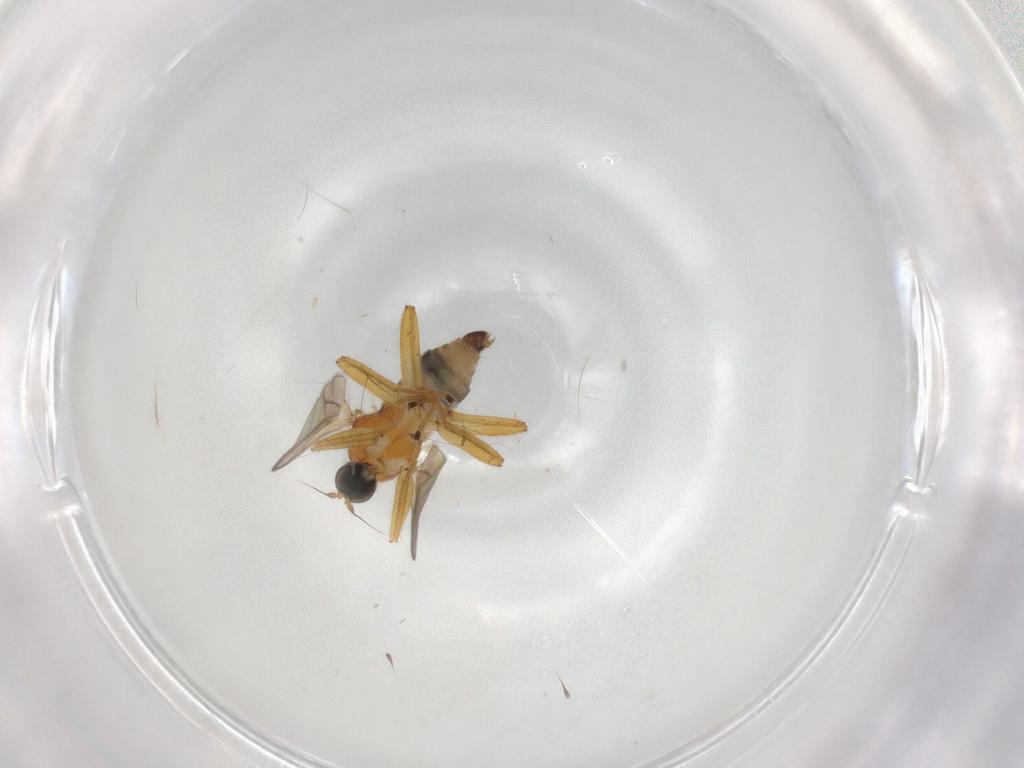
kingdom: Animalia
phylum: Arthropoda
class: Insecta
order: Diptera
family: Hybotidae
